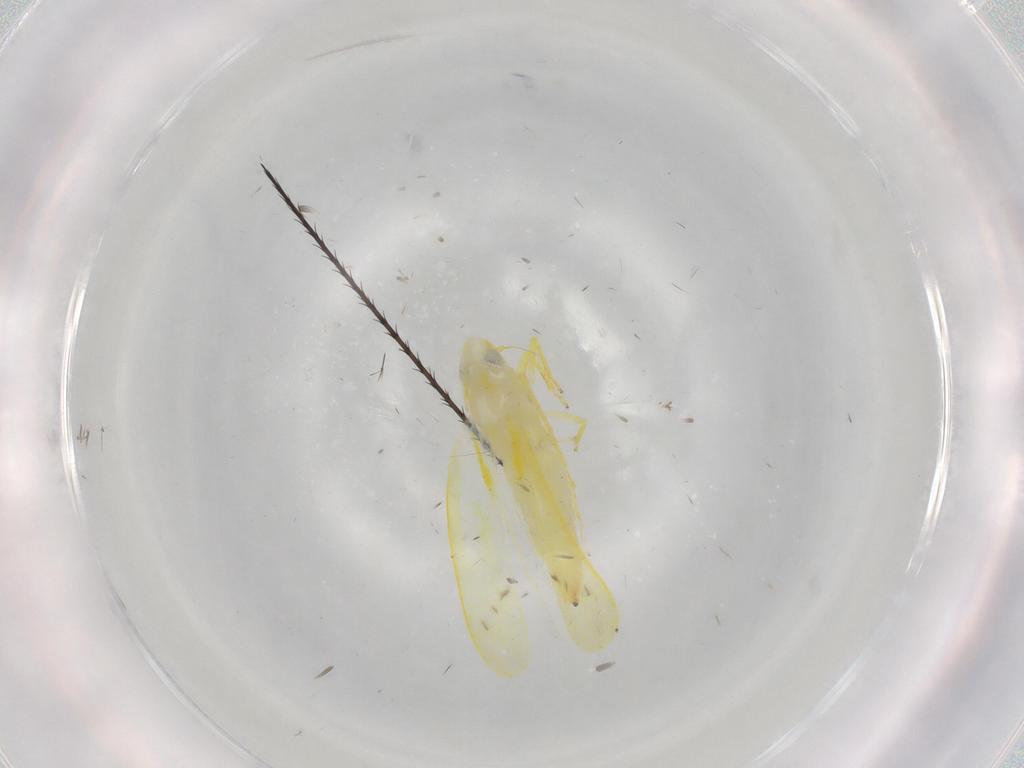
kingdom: Animalia
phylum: Arthropoda
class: Insecta
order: Hemiptera
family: Cicadellidae
